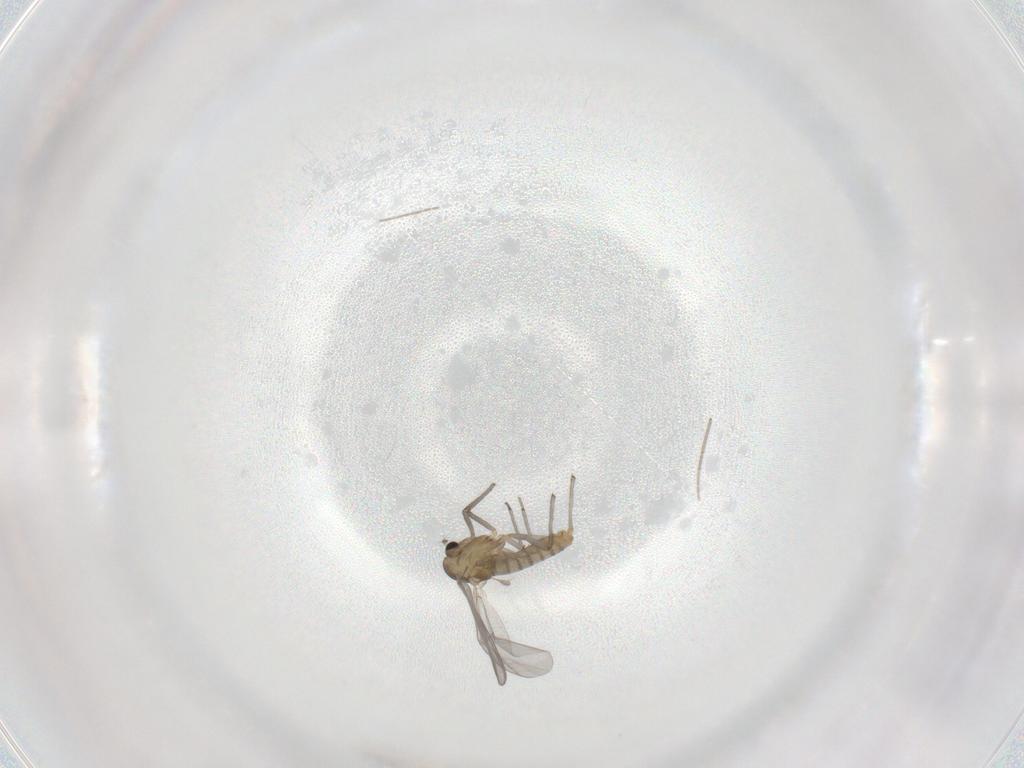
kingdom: Animalia
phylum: Arthropoda
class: Insecta
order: Diptera
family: Chironomidae
